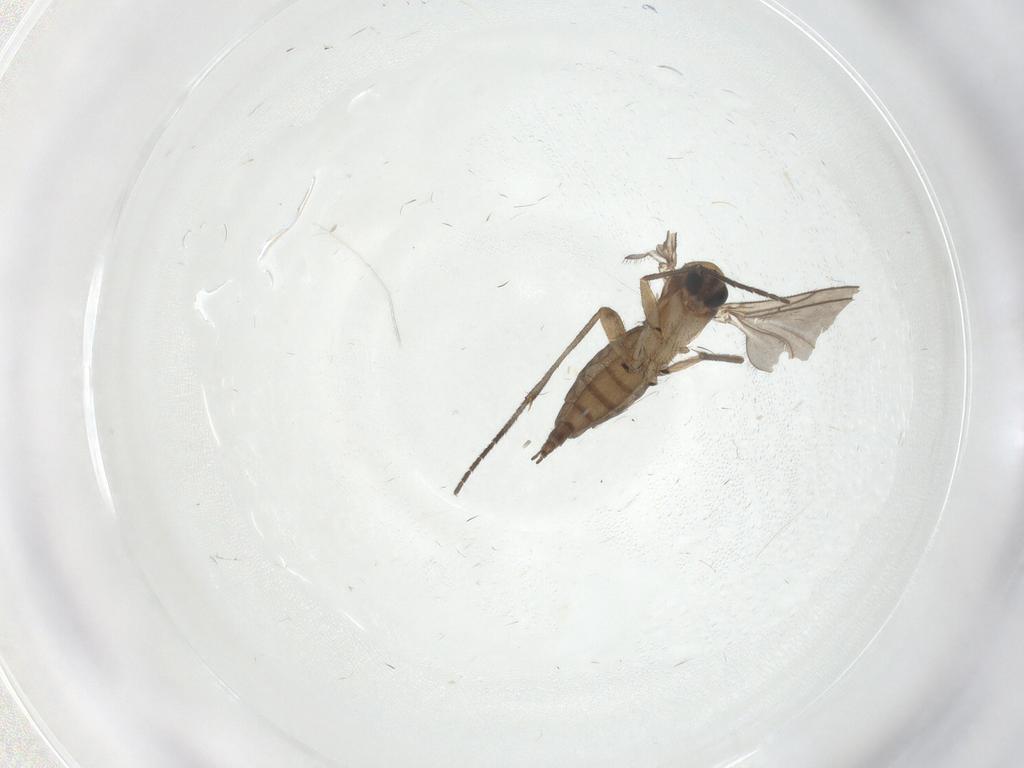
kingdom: Animalia
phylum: Arthropoda
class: Insecta
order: Diptera
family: Sciaridae
